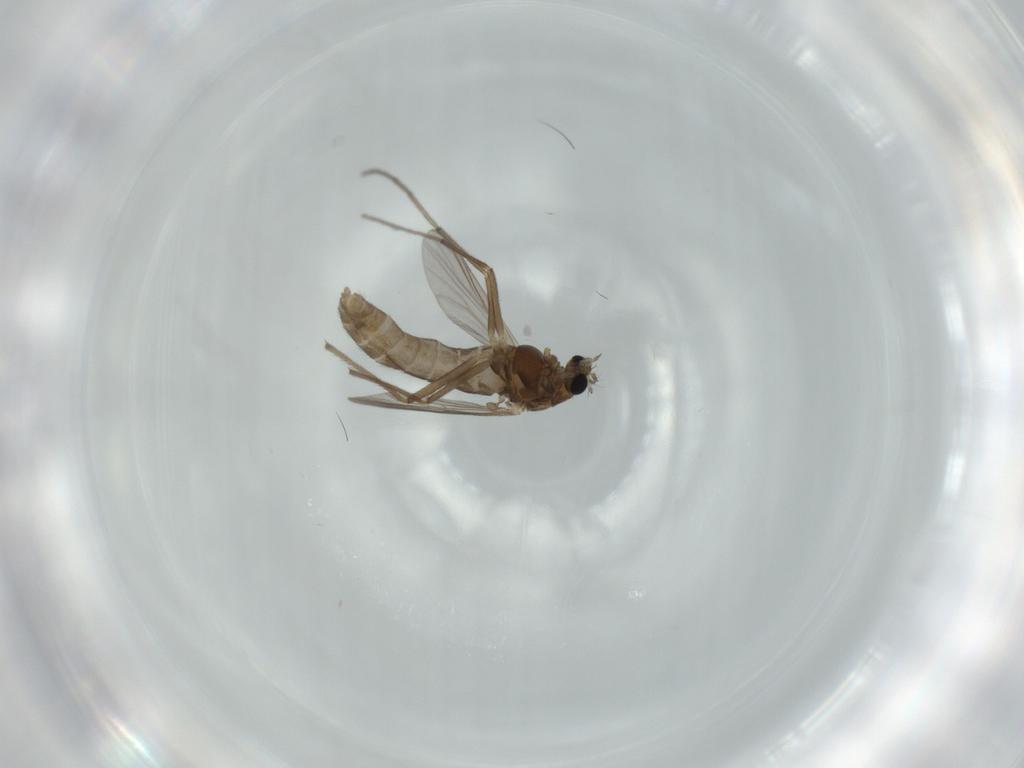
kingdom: Animalia
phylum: Arthropoda
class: Insecta
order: Diptera
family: Chironomidae
